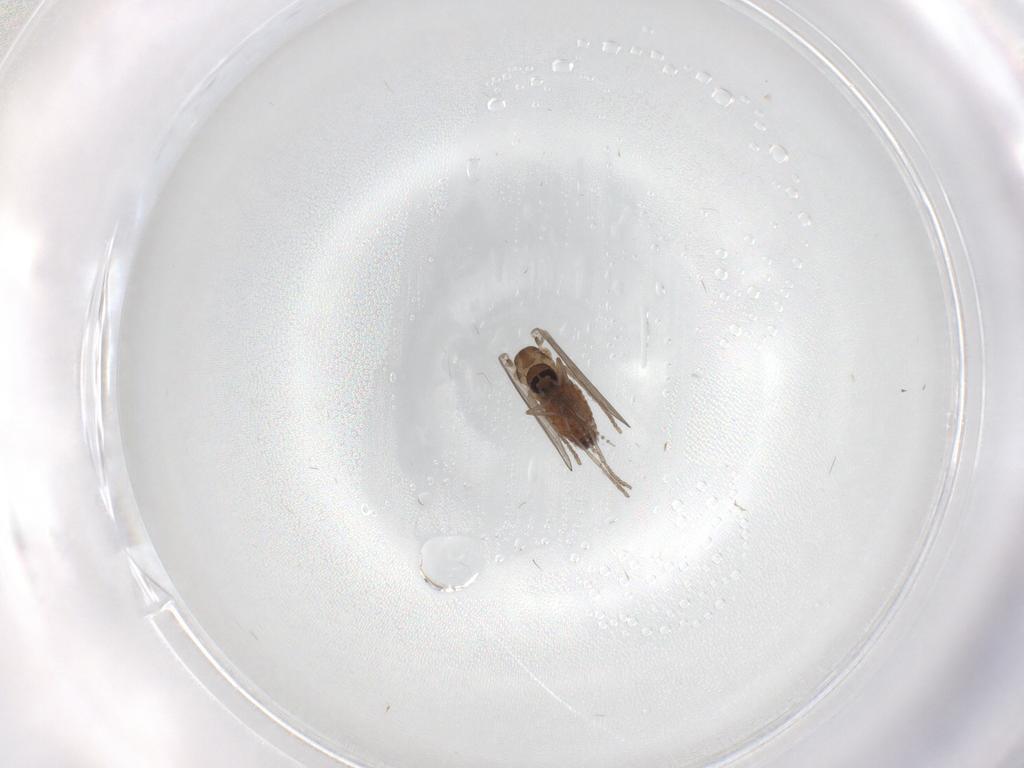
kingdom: Animalia
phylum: Arthropoda
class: Insecta
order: Diptera
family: Psychodidae
